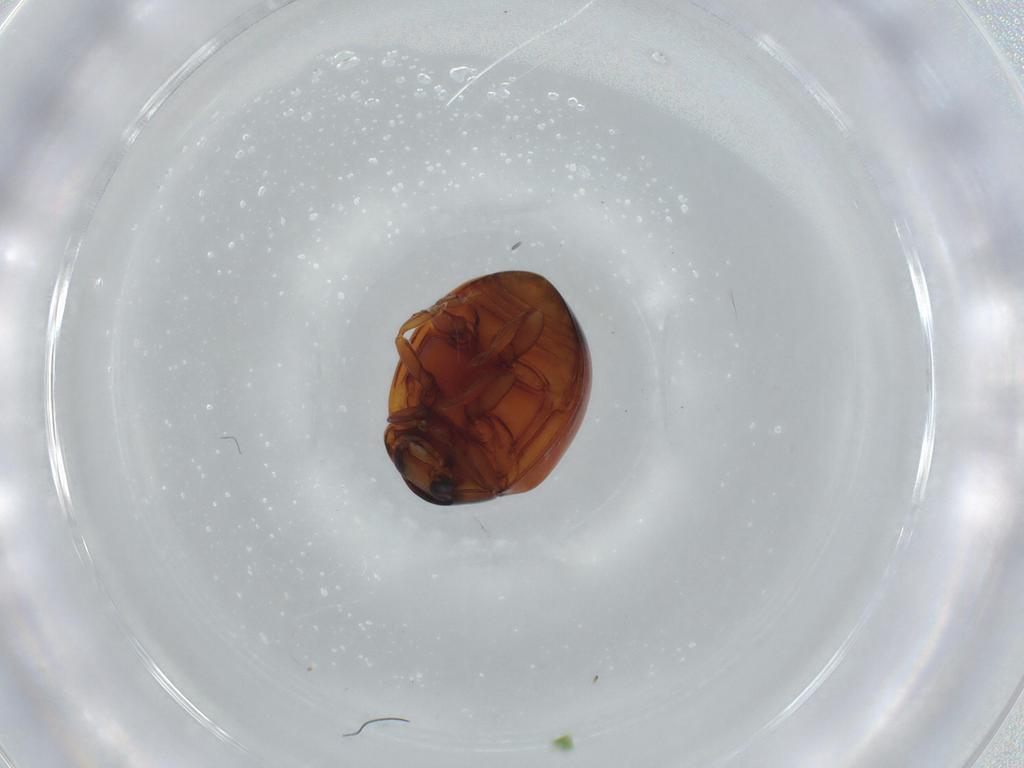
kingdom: Animalia
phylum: Arthropoda
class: Insecta
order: Coleoptera
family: Coccinellidae
